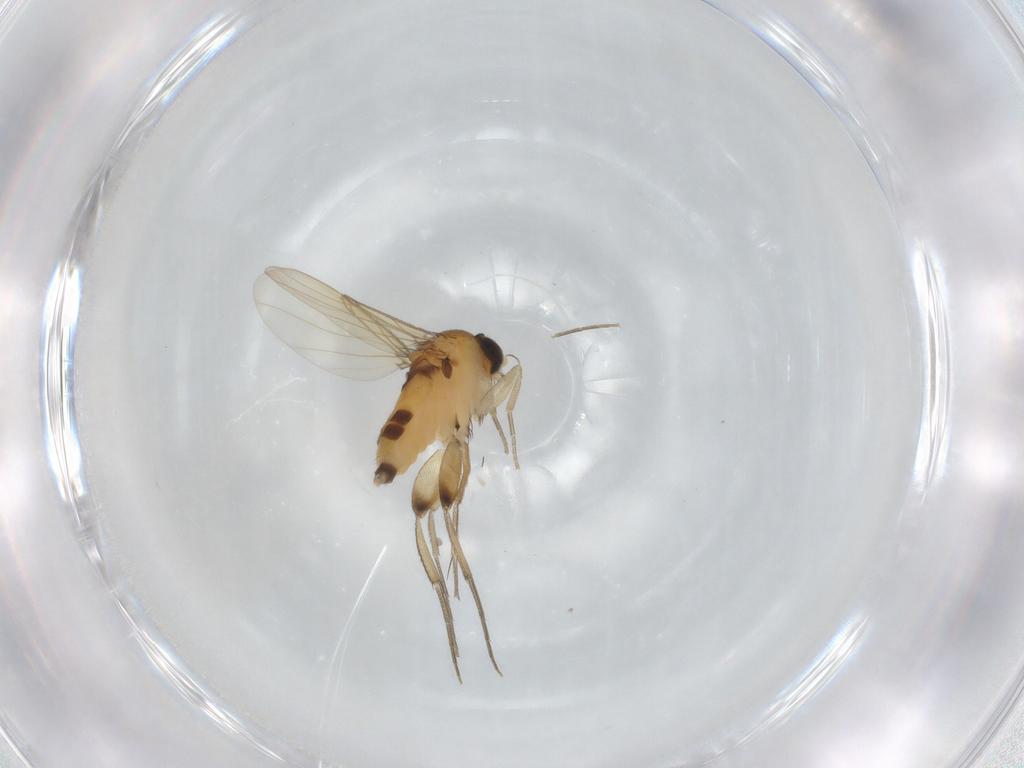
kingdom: Animalia
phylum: Arthropoda
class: Insecta
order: Diptera
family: Phoridae
